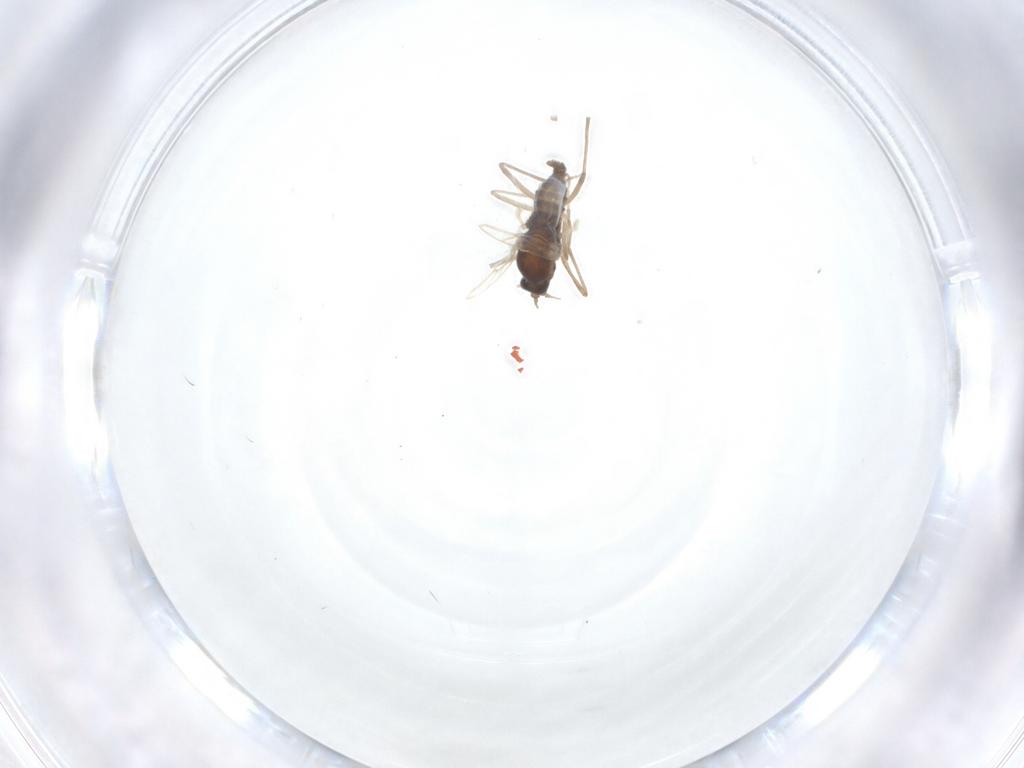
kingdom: Animalia
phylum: Arthropoda
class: Insecta
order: Diptera
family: Cecidomyiidae
